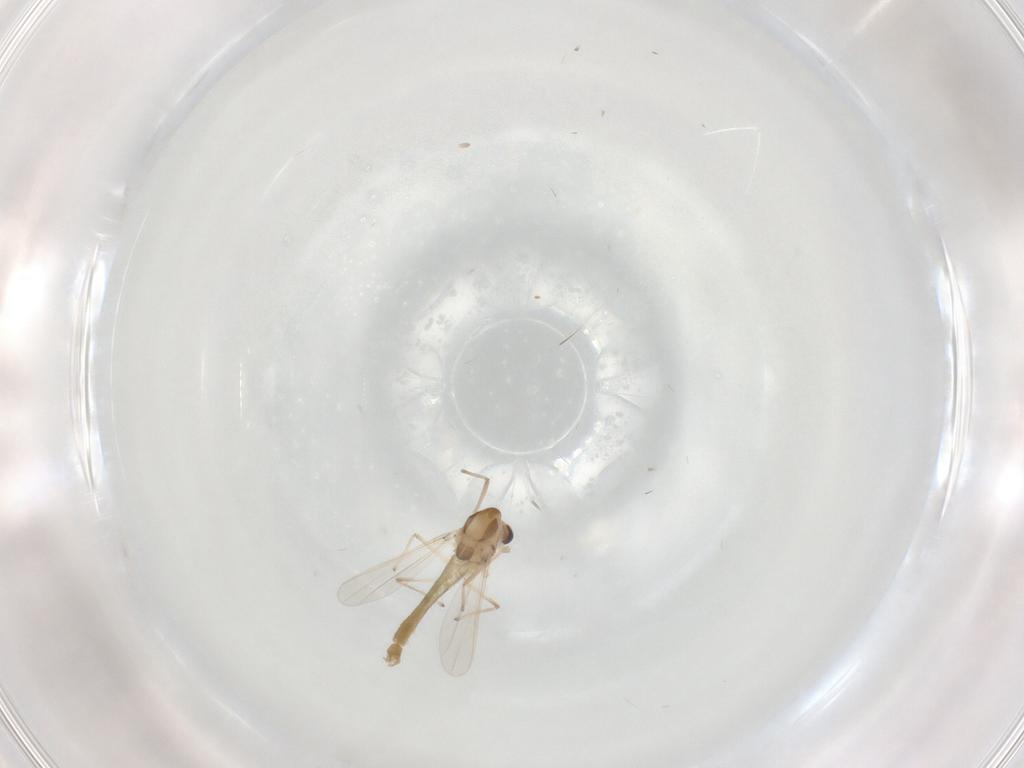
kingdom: Animalia
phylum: Arthropoda
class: Insecta
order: Diptera
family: Chironomidae
